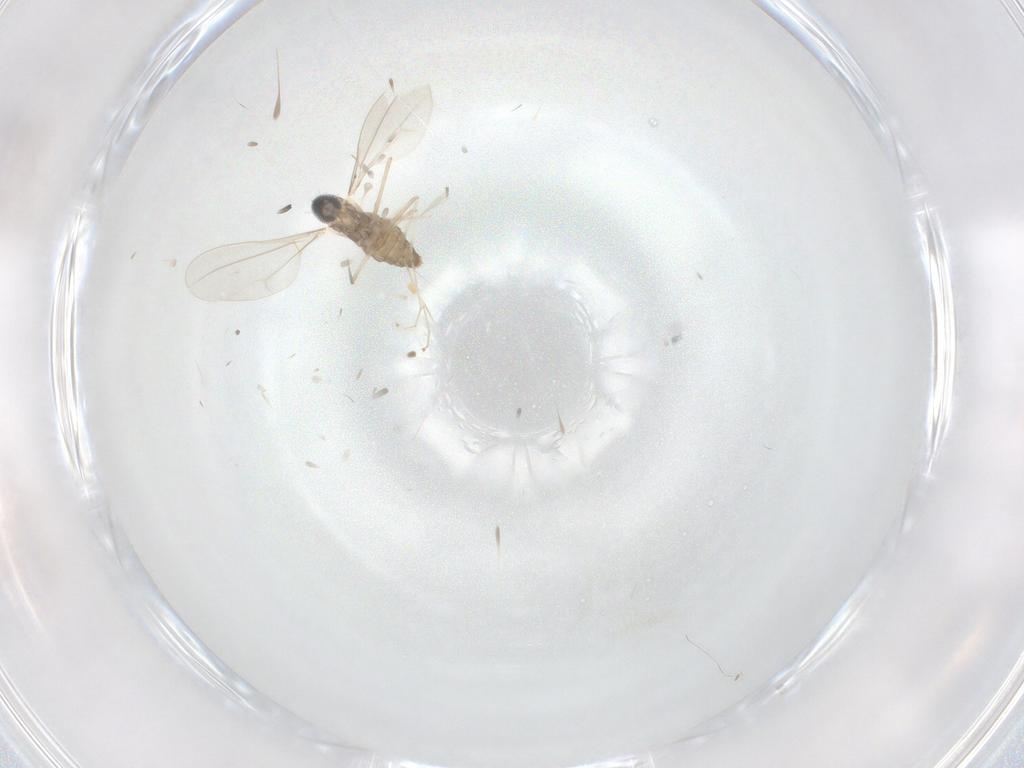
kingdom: Animalia
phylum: Arthropoda
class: Insecta
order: Diptera
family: Cecidomyiidae
